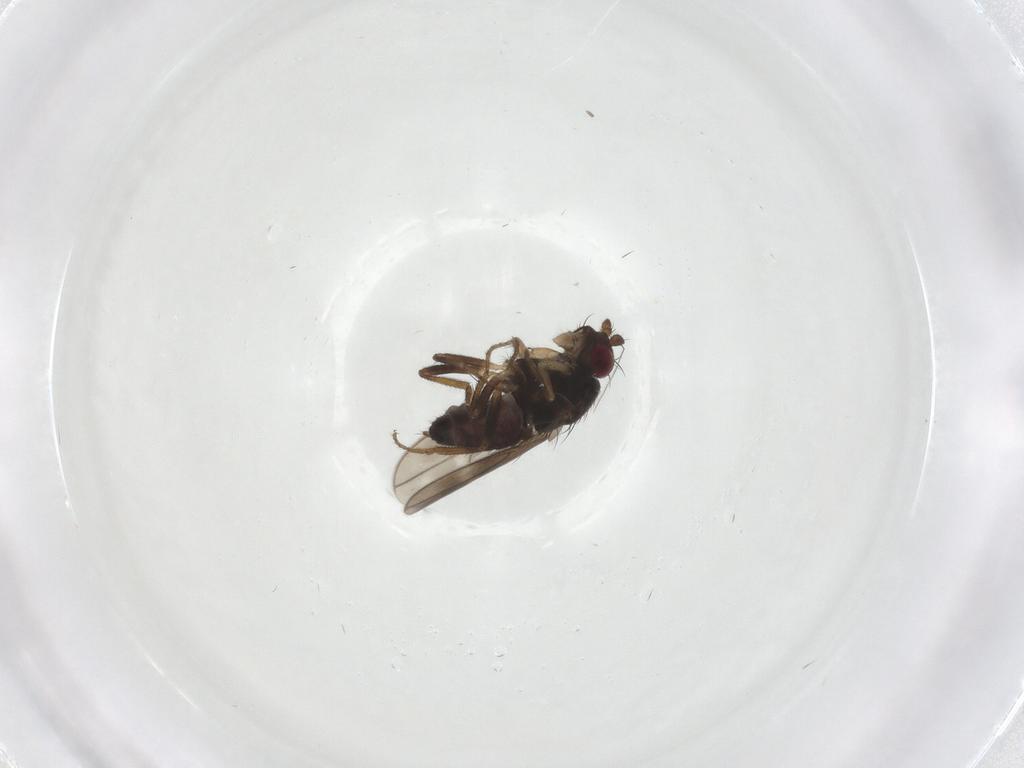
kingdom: Animalia
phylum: Arthropoda
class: Insecta
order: Diptera
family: Sphaeroceridae
